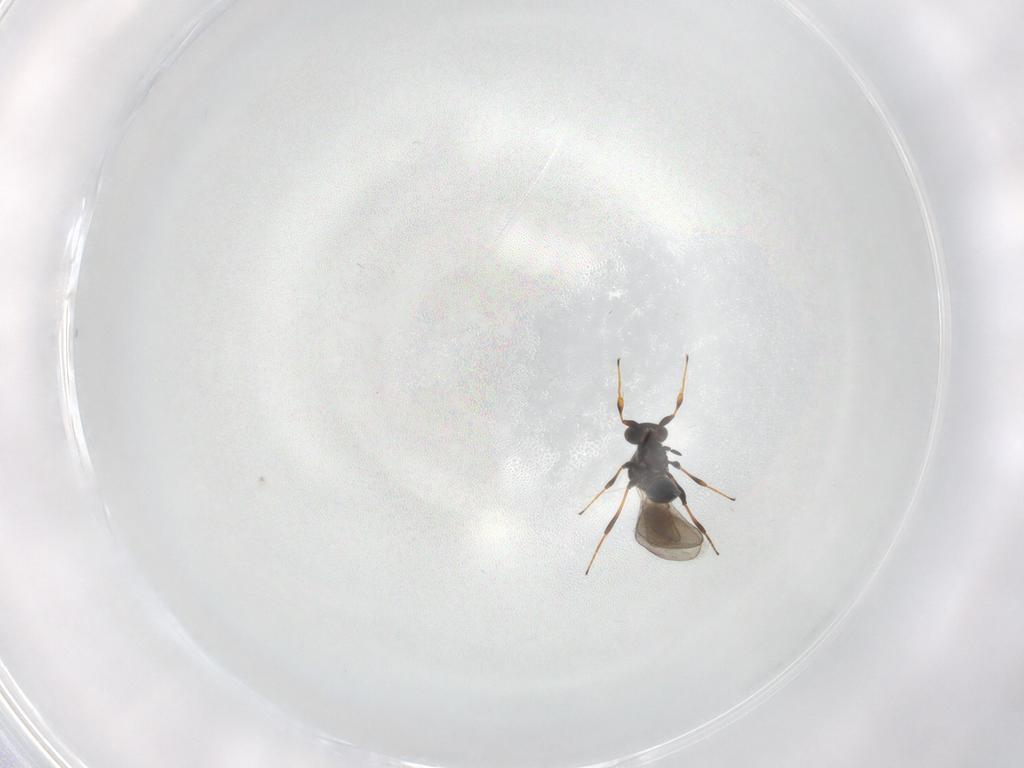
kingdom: Animalia
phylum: Arthropoda
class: Insecta
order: Hymenoptera
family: Platygastridae
